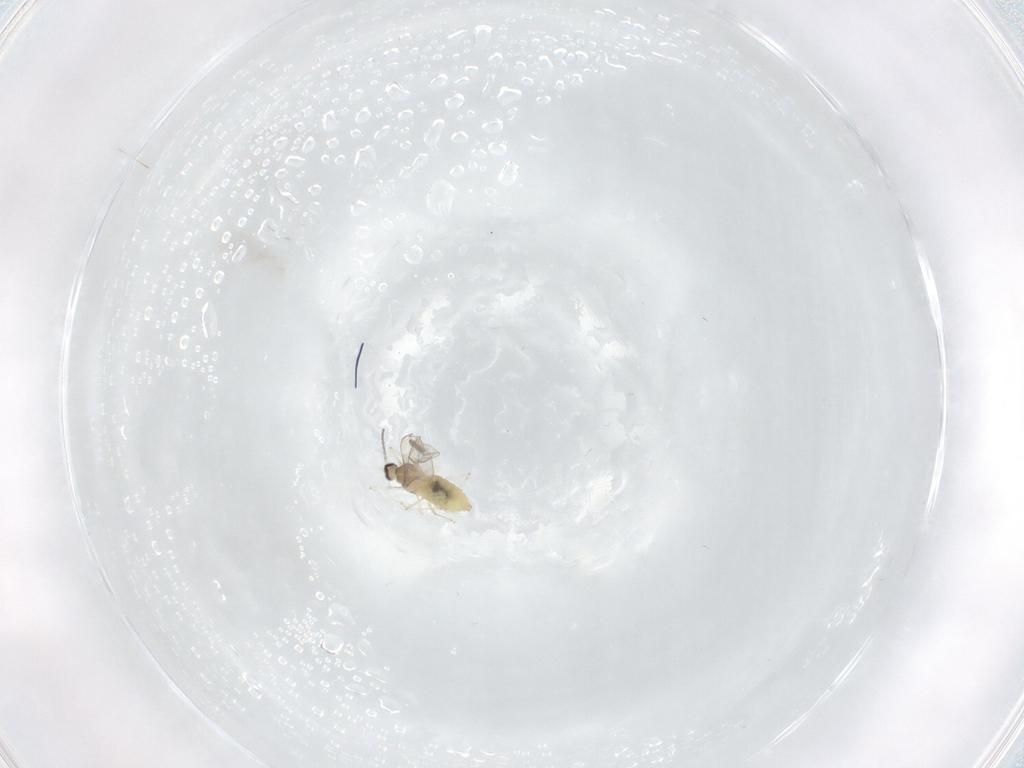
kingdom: Animalia
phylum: Arthropoda
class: Insecta
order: Diptera
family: Cecidomyiidae
